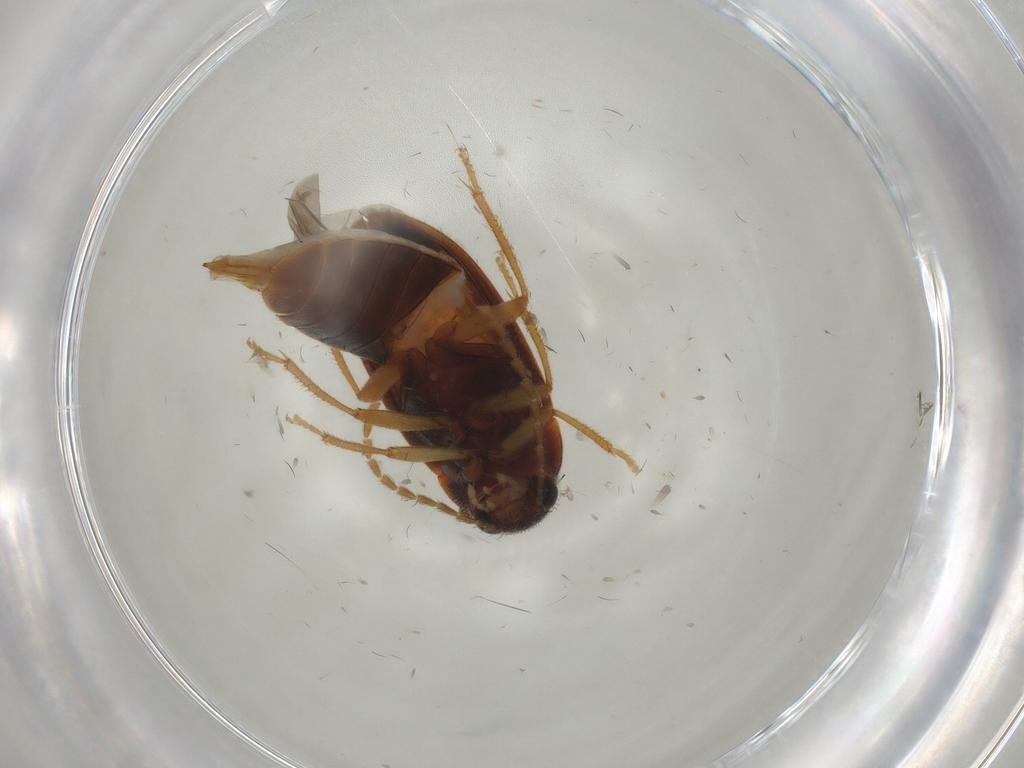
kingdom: Animalia
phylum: Arthropoda
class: Insecta
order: Coleoptera
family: Ptilodactylidae
